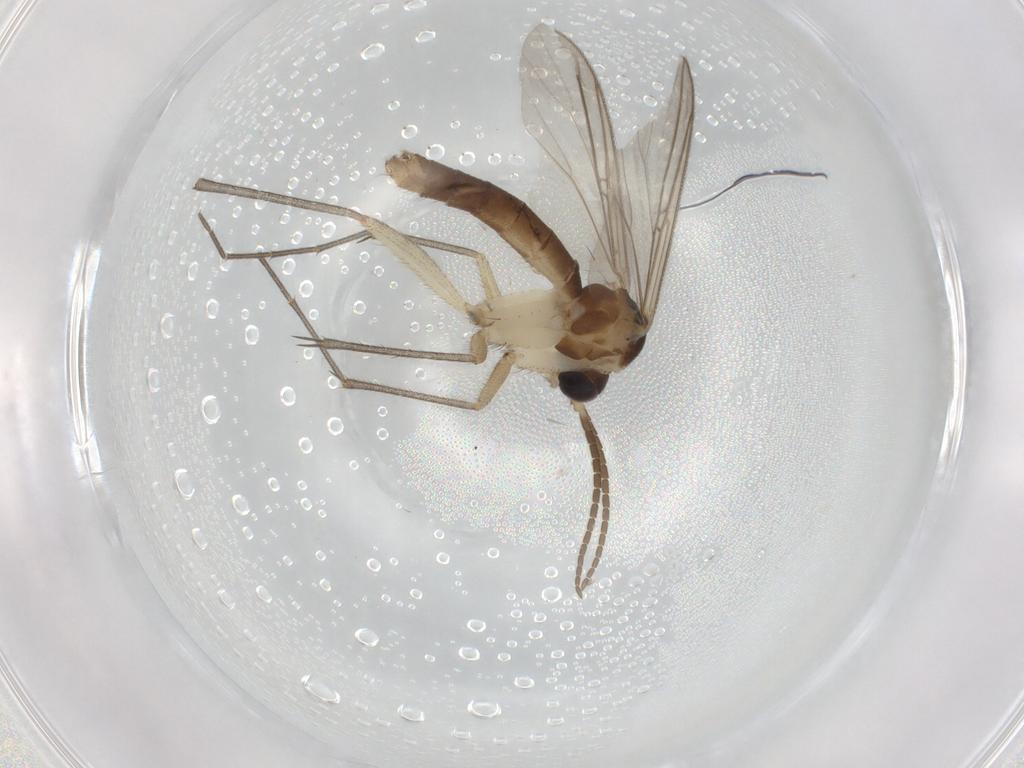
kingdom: Animalia
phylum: Arthropoda
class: Insecta
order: Diptera
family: Mycetophilidae
